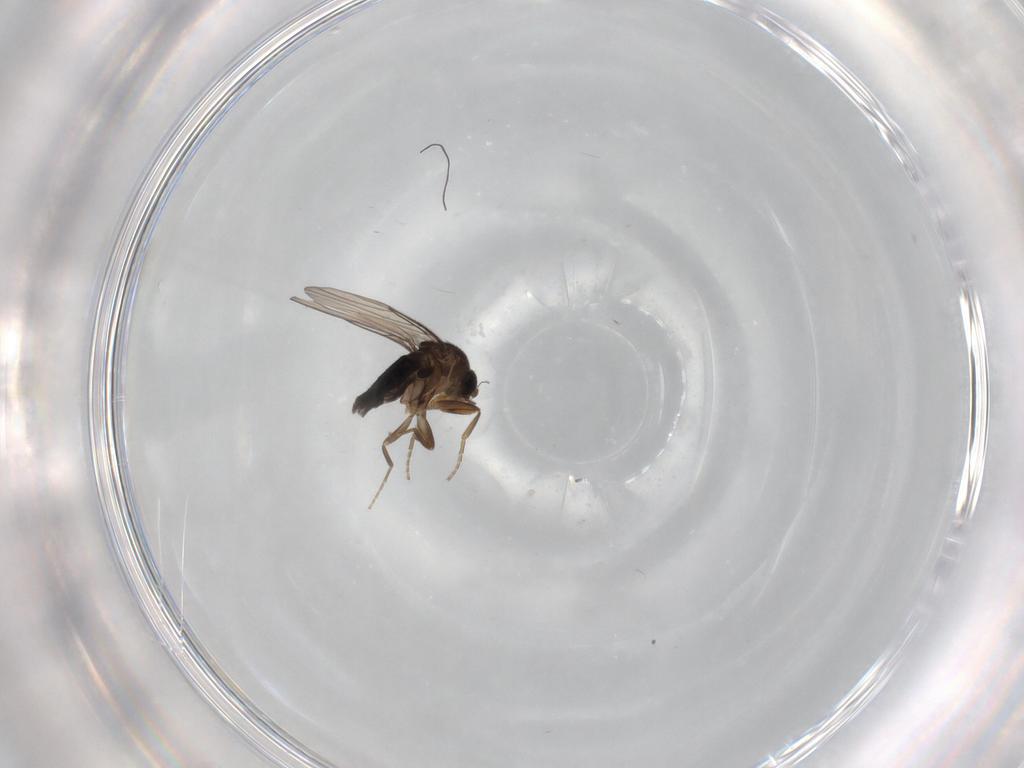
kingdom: Animalia
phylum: Arthropoda
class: Insecta
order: Diptera
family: Phoridae
